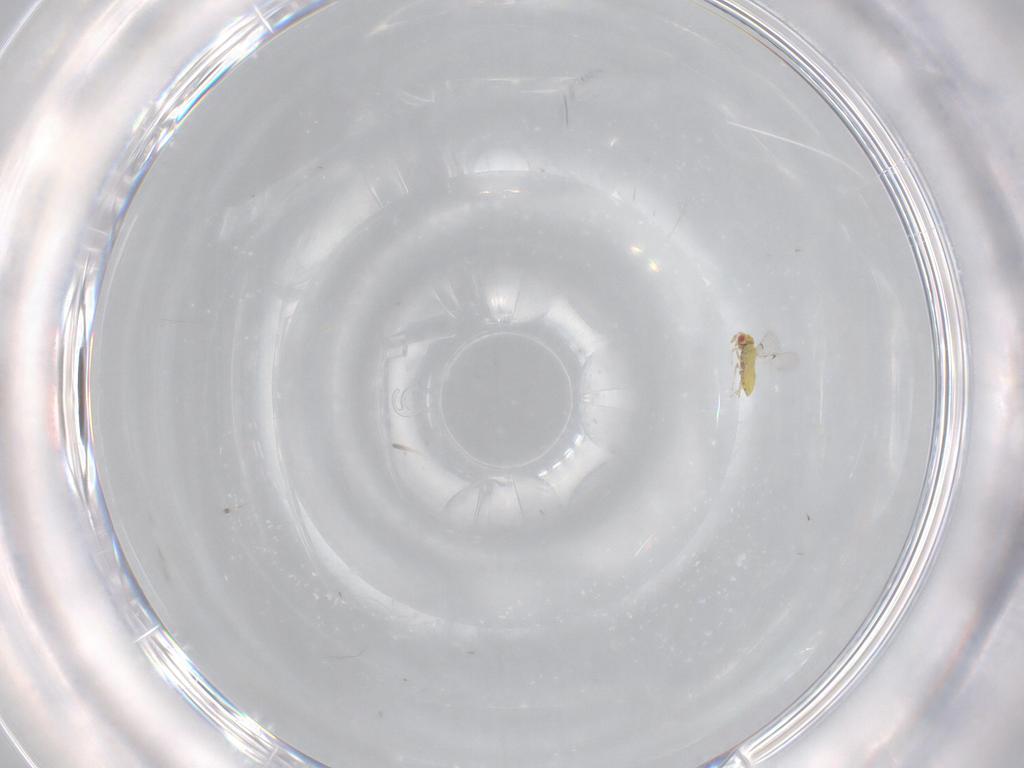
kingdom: Animalia
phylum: Arthropoda
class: Insecta
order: Hymenoptera
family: Trichogrammatidae
